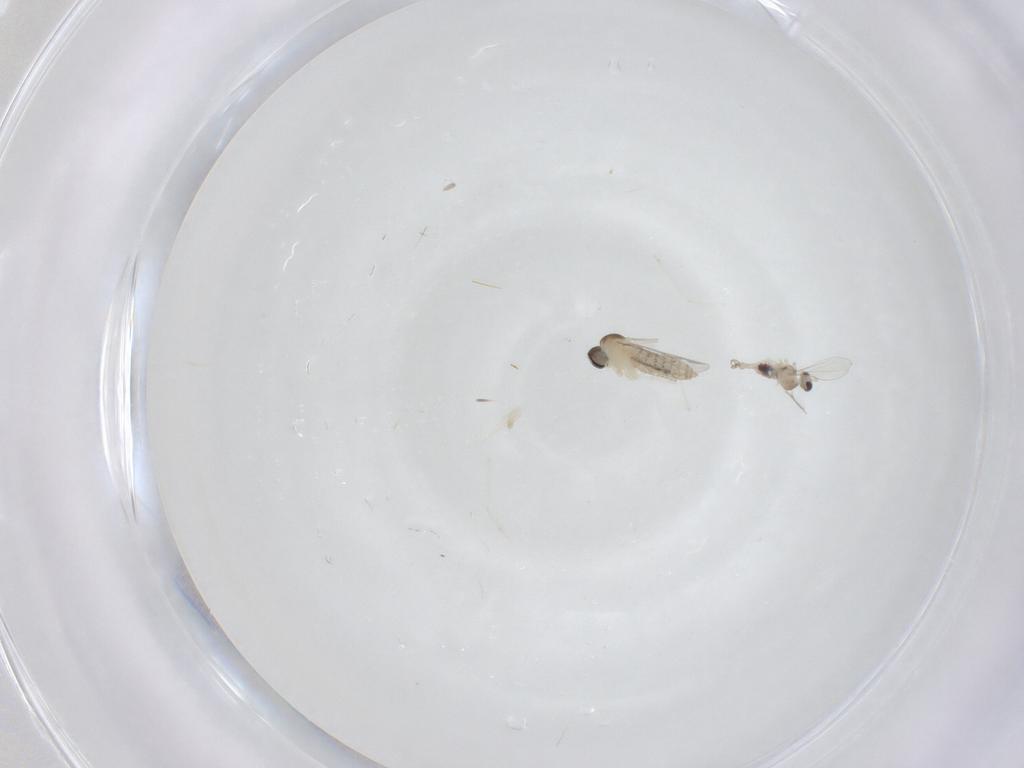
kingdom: Animalia
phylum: Arthropoda
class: Insecta
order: Diptera
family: Cecidomyiidae
